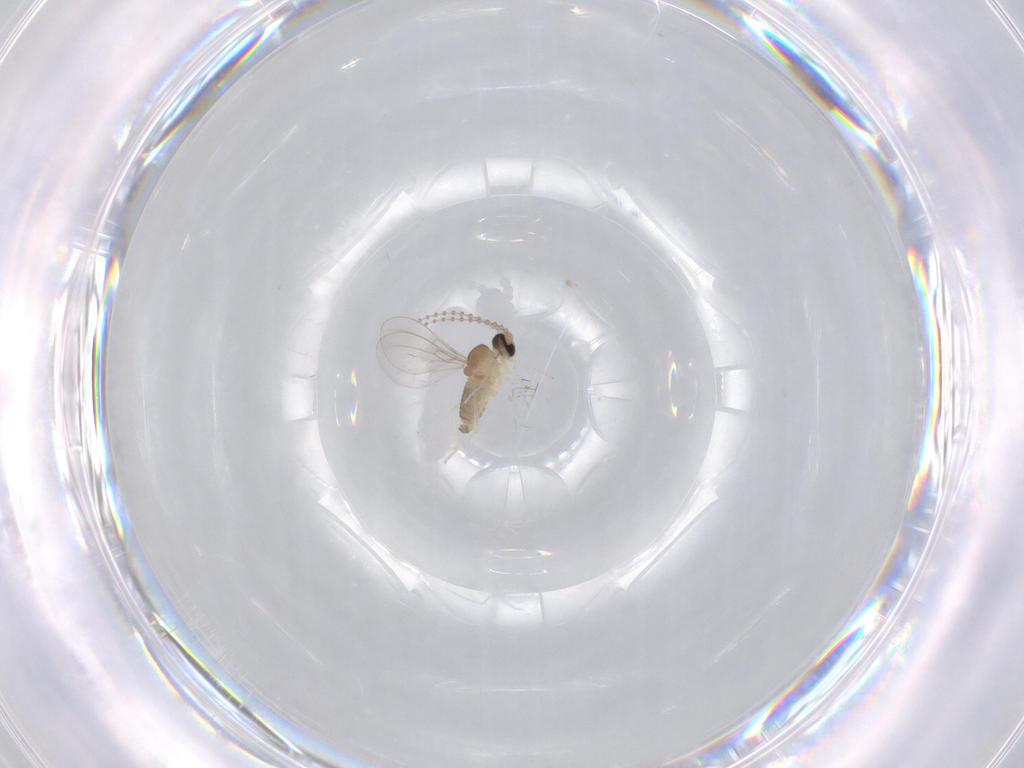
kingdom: Animalia
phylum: Arthropoda
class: Insecta
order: Diptera
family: Cecidomyiidae
